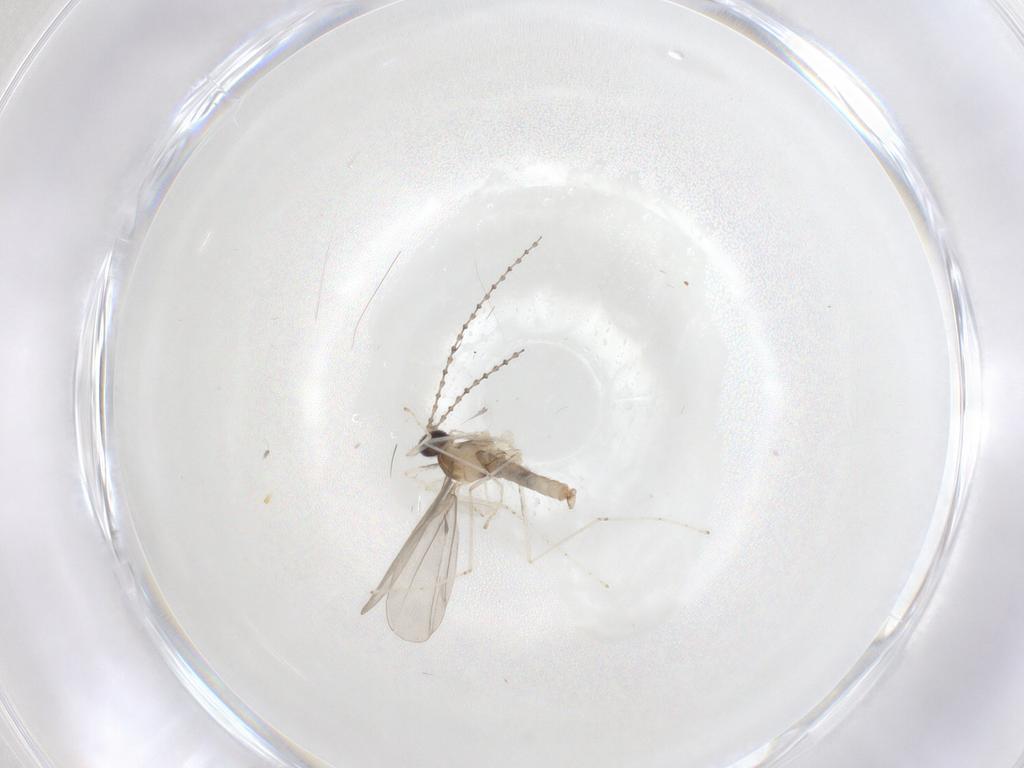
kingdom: Animalia
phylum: Arthropoda
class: Insecta
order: Diptera
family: Cecidomyiidae
